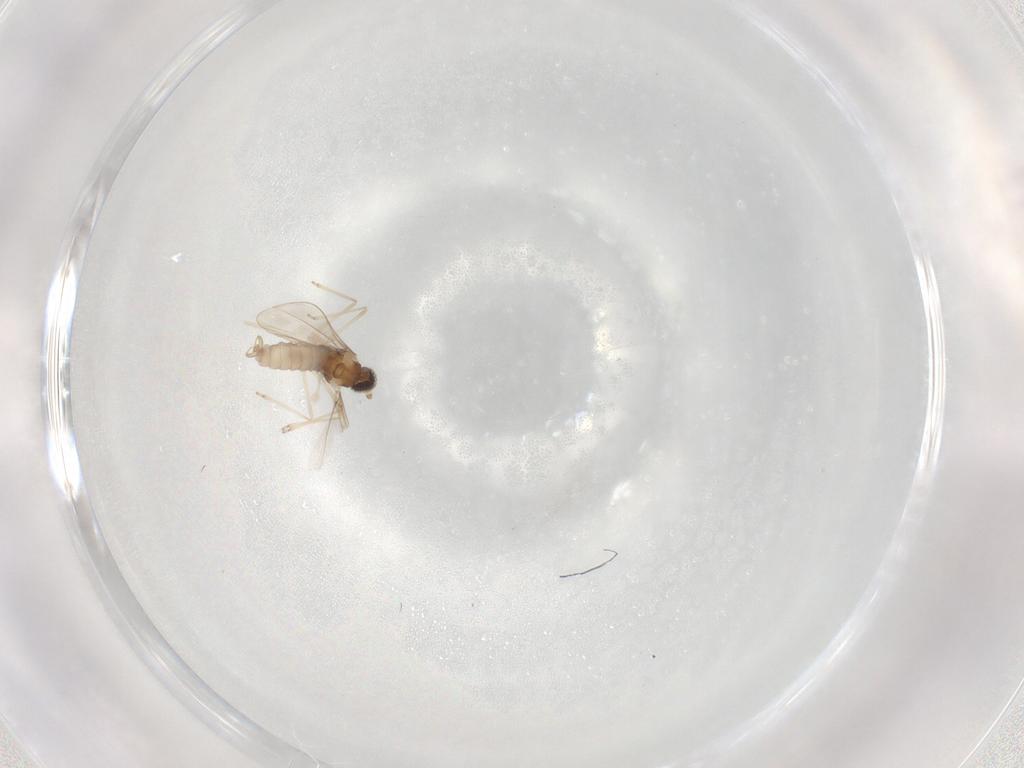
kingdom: Animalia
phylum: Arthropoda
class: Insecta
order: Diptera
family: Cecidomyiidae
